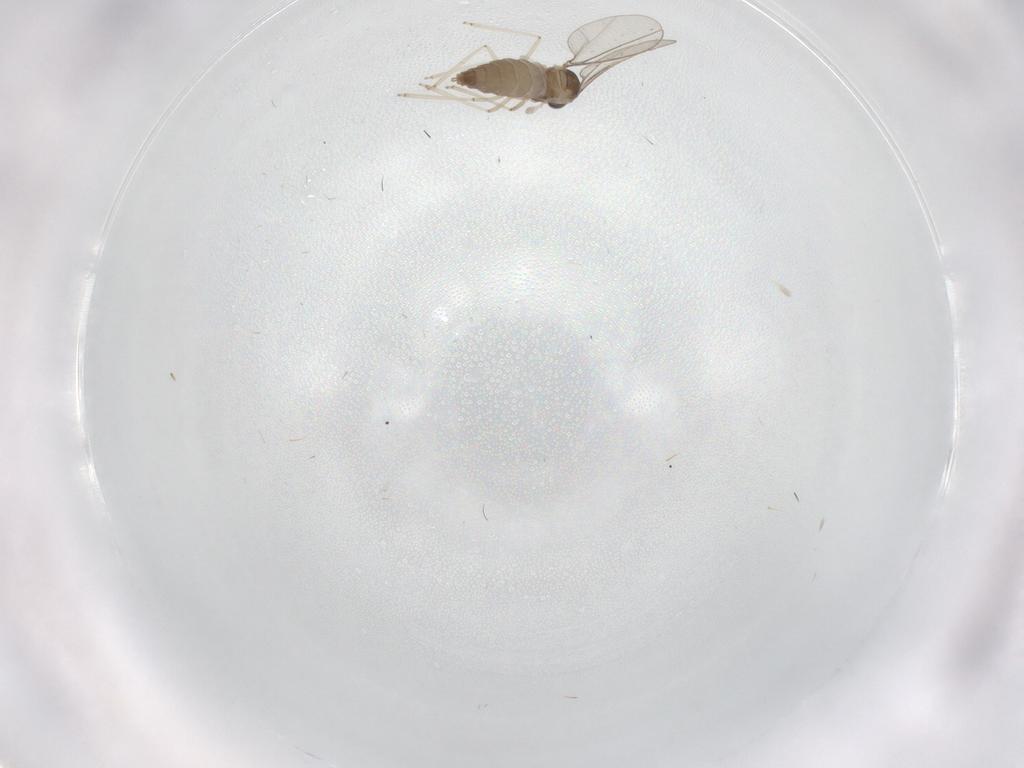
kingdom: Animalia
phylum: Arthropoda
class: Insecta
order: Diptera
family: Cecidomyiidae
